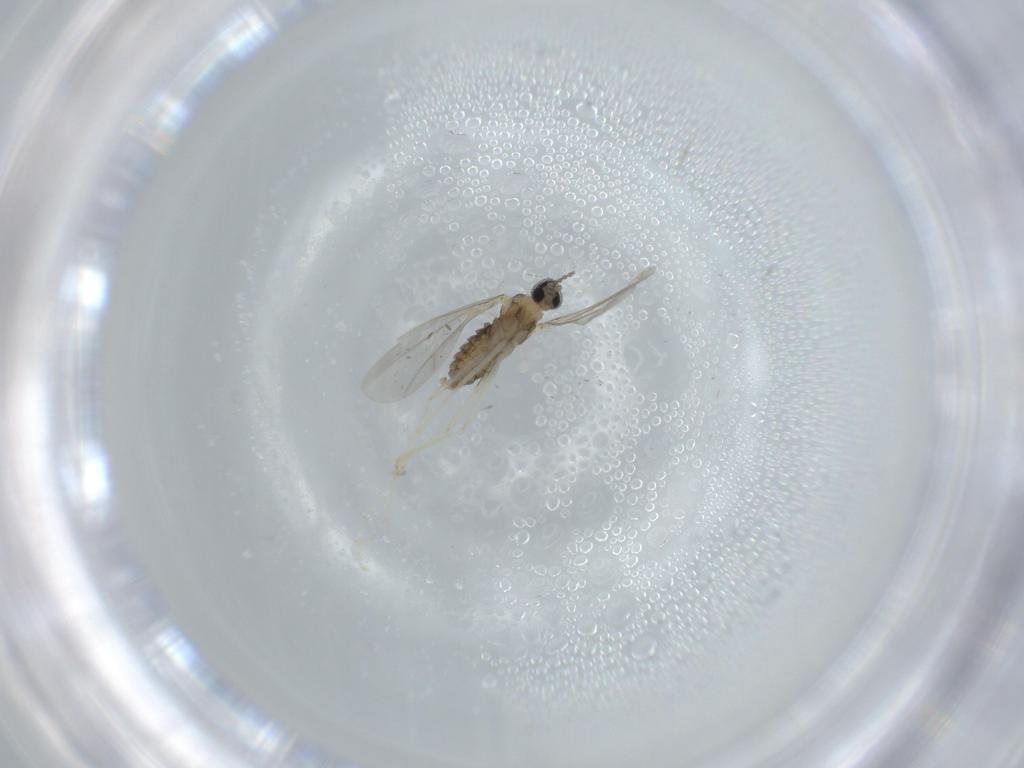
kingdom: Animalia
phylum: Arthropoda
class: Insecta
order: Diptera
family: Cecidomyiidae
